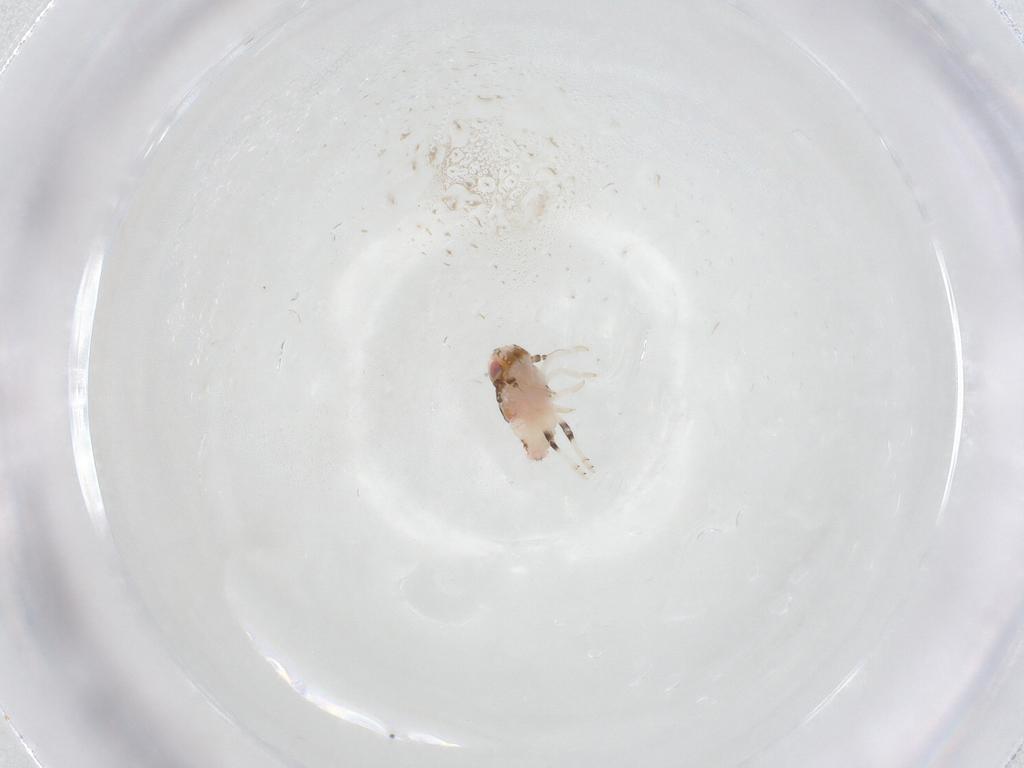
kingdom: Animalia
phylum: Arthropoda
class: Insecta
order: Hemiptera
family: Nogodinidae
